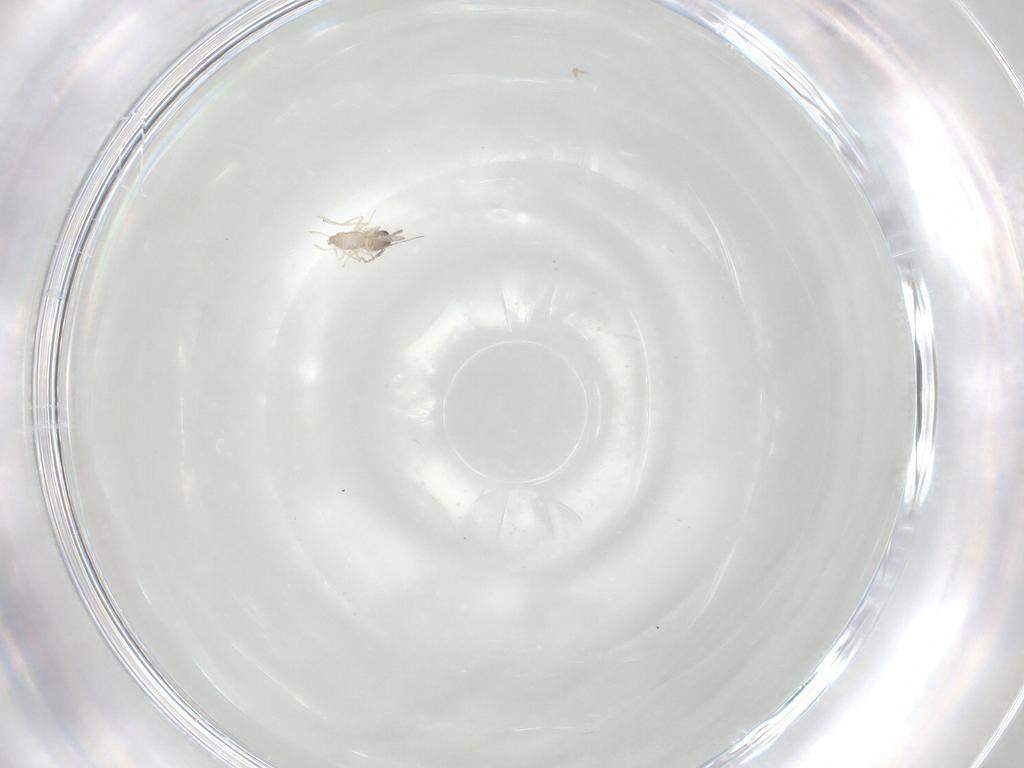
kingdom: Animalia
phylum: Arthropoda
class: Insecta
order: Diptera
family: Cecidomyiidae
